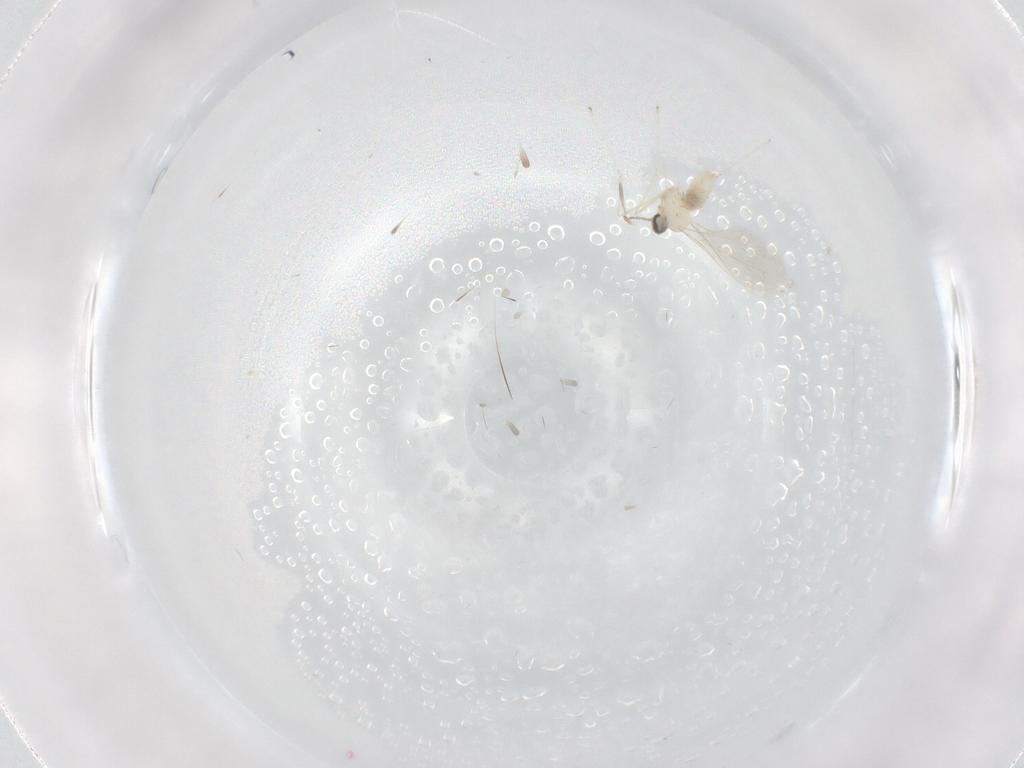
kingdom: Animalia
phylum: Arthropoda
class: Insecta
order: Diptera
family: Cecidomyiidae
